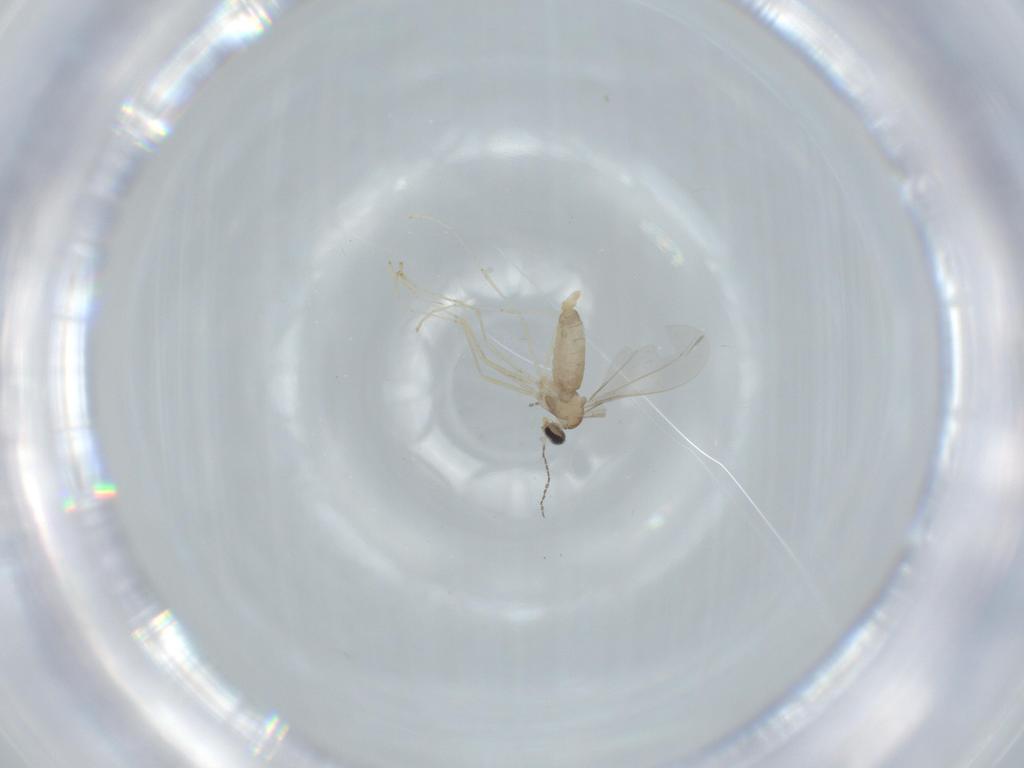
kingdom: Animalia
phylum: Arthropoda
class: Insecta
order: Diptera
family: Cecidomyiidae
